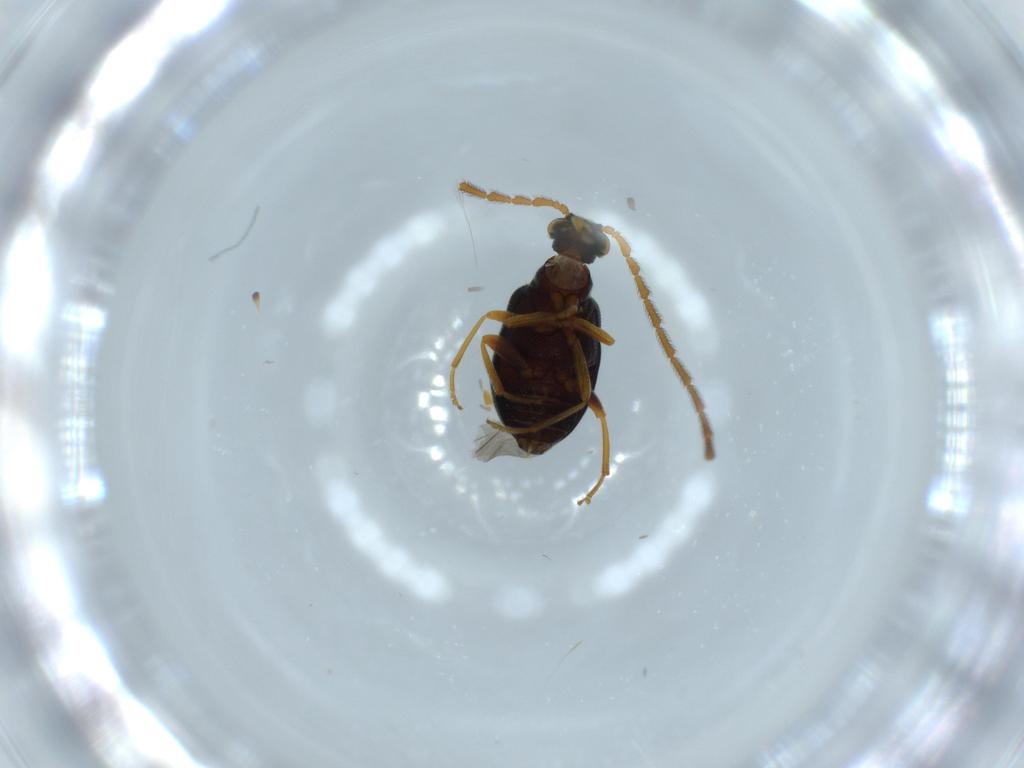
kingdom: Animalia
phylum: Arthropoda
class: Insecta
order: Coleoptera
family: Aderidae
